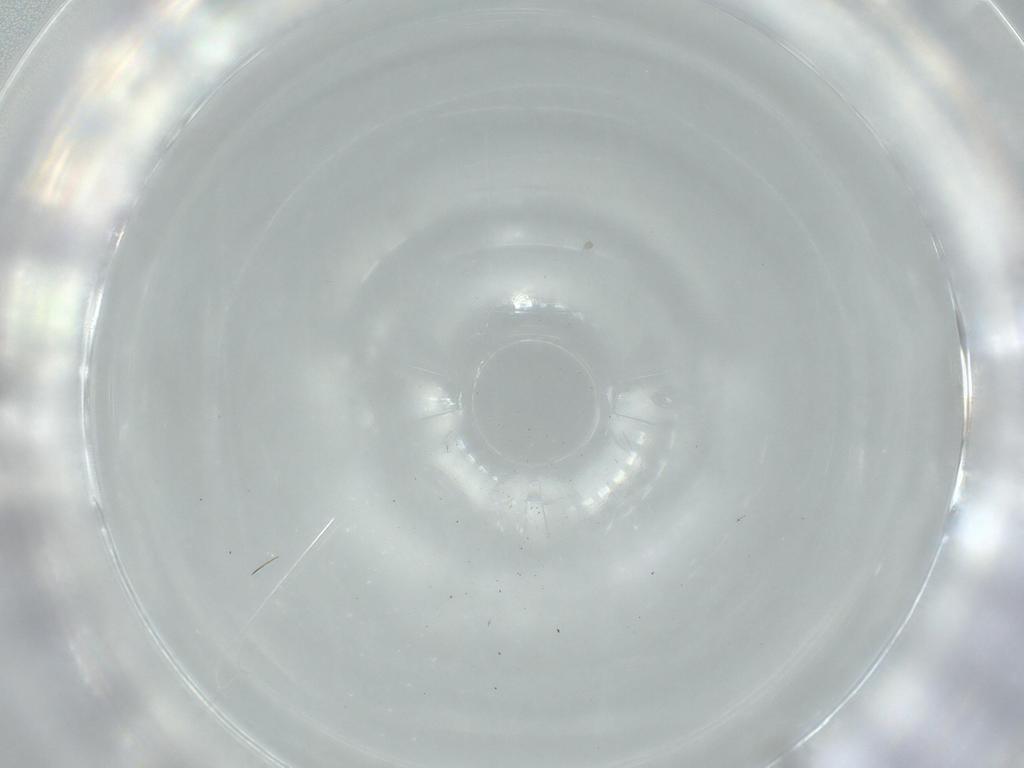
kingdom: Animalia
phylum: Arthropoda
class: Insecta
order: Diptera
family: Cecidomyiidae
